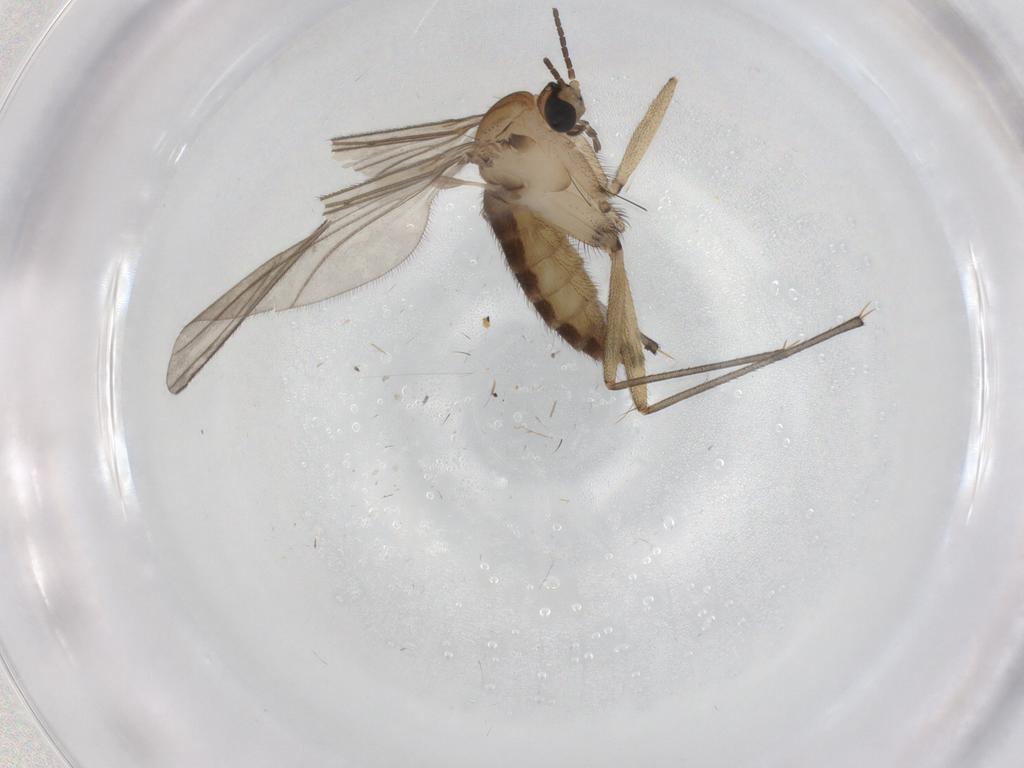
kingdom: Animalia
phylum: Arthropoda
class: Insecta
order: Diptera
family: Sciaridae
